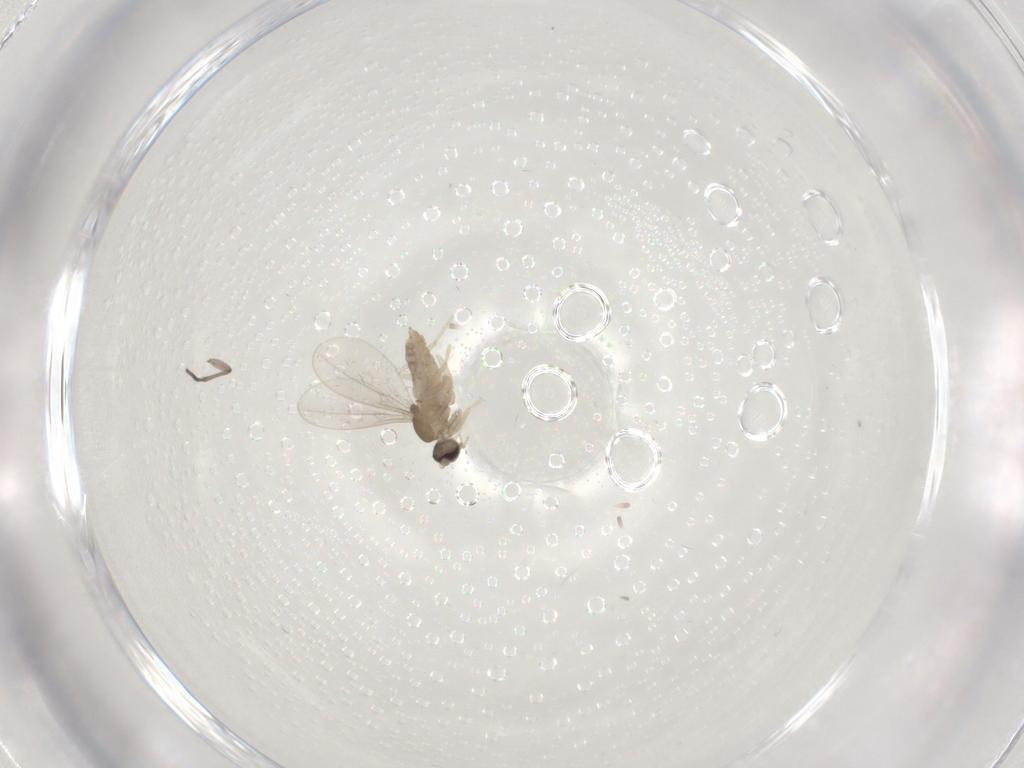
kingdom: Animalia
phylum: Arthropoda
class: Insecta
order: Diptera
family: Cecidomyiidae
